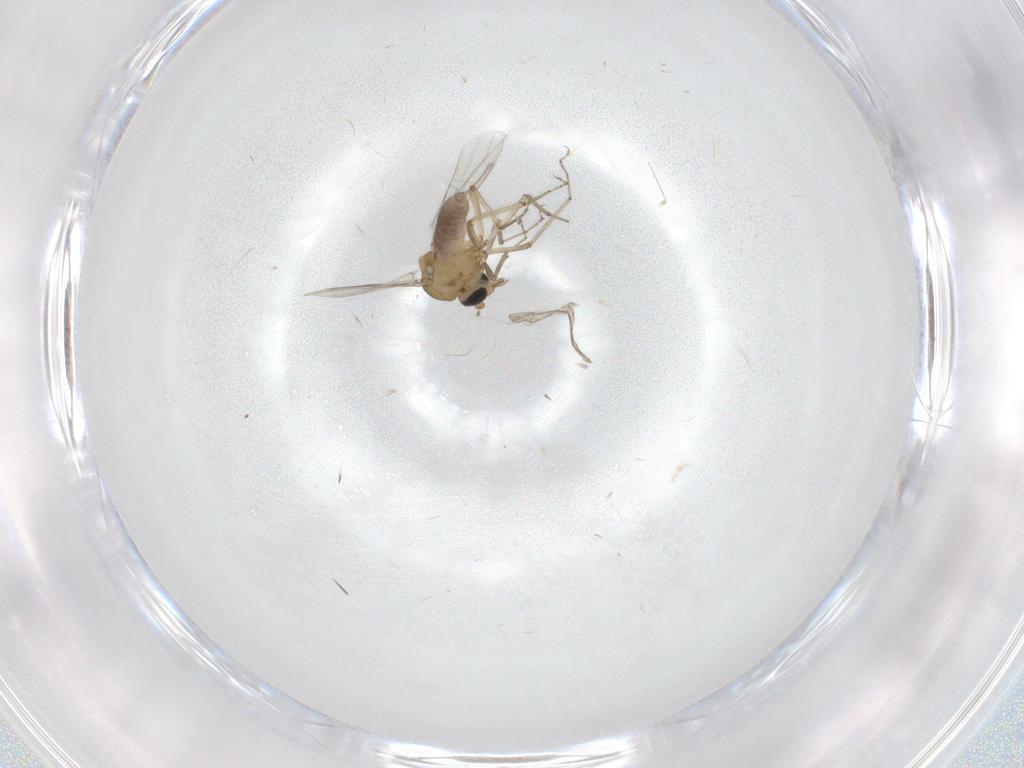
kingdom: Animalia
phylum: Arthropoda
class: Insecta
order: Diptera
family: Ceratopogonidae
